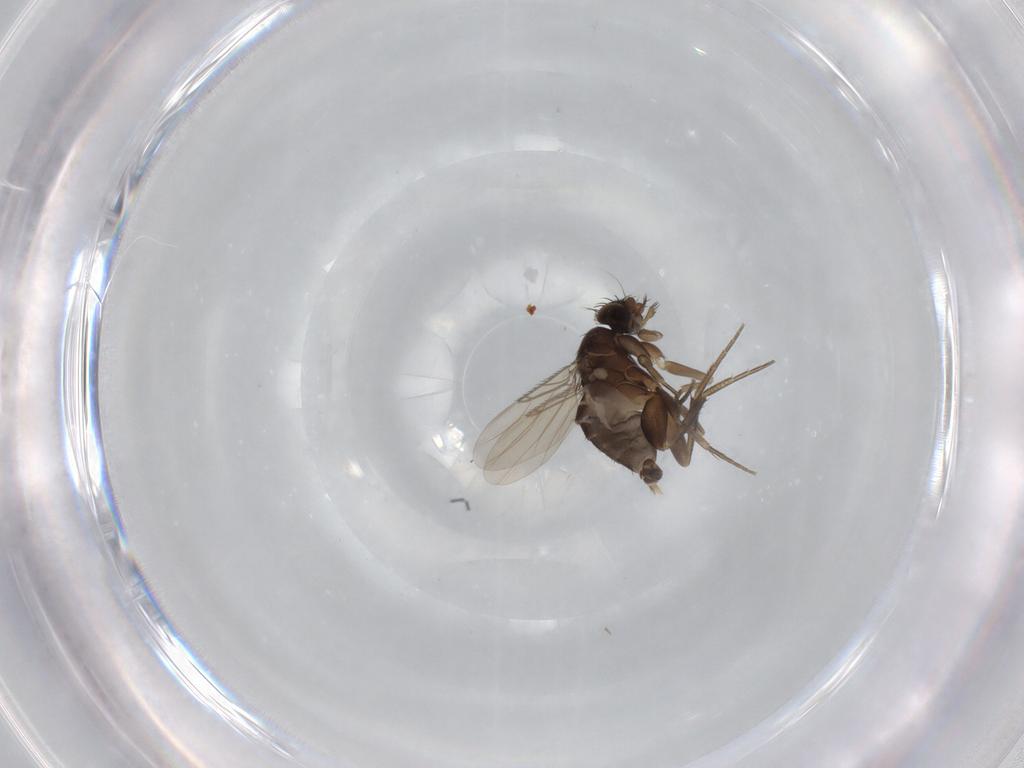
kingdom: Animalia
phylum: Arthropoda
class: Insecta
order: Diptera
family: Phoridae
